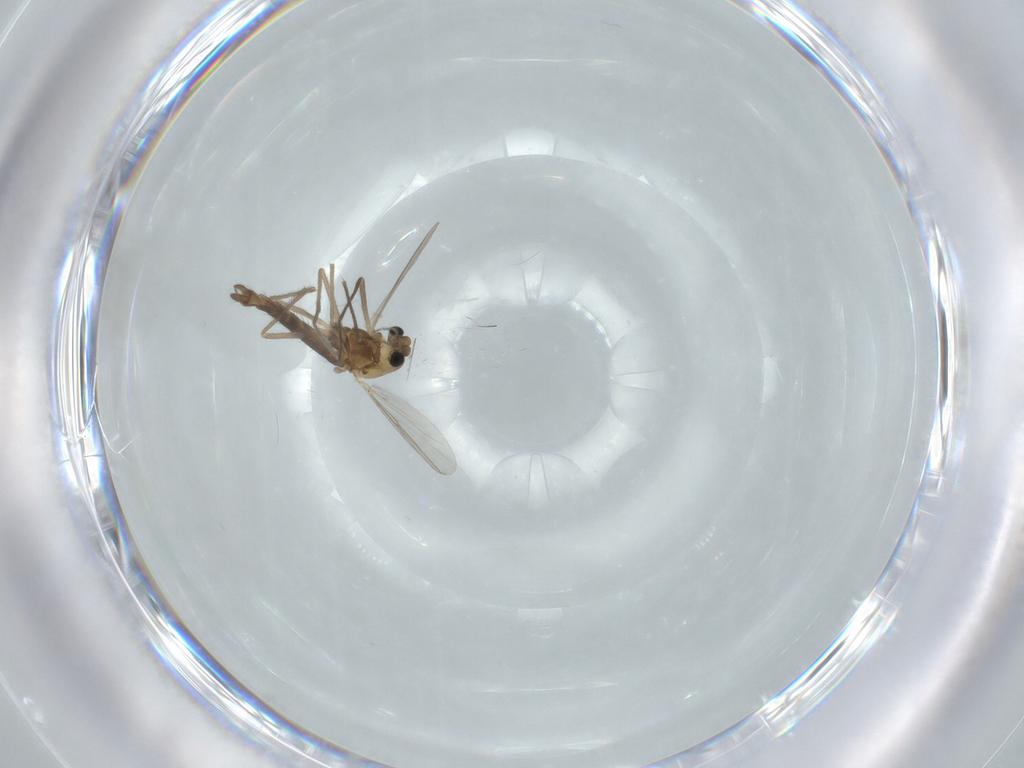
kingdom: Animalia
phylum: Arthropoda
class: Insecta
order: Diptera
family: Chironomidae
